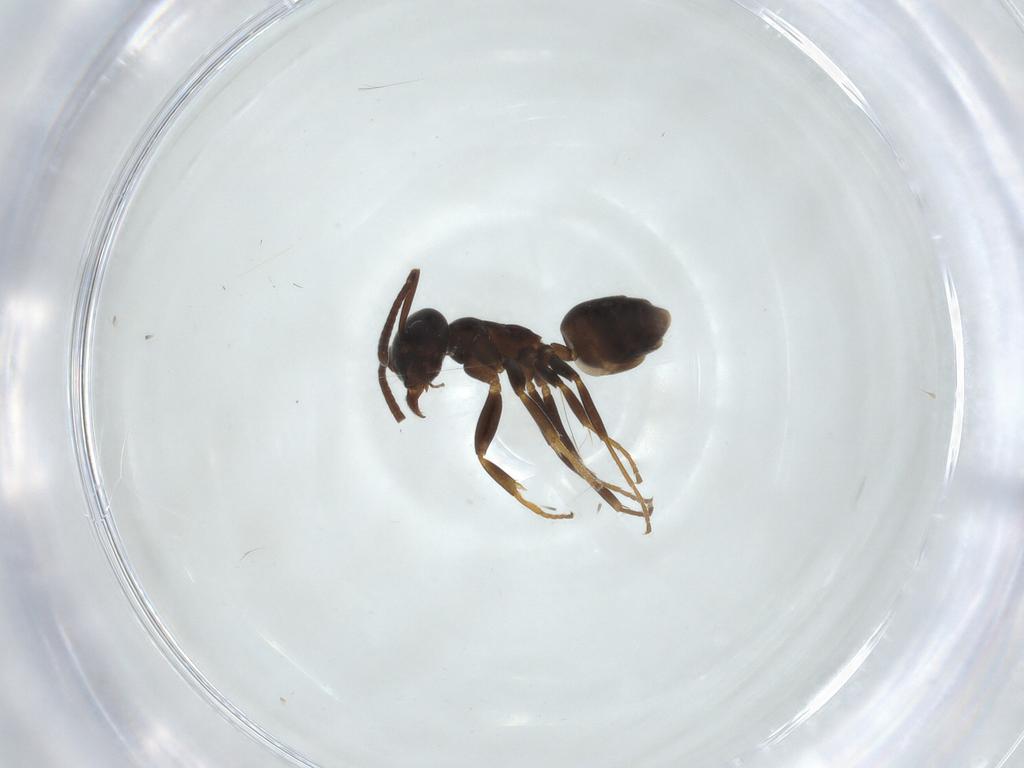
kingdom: Animalia
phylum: Arthropoda
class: Insecta
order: Hymenoptera
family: Formicidae
